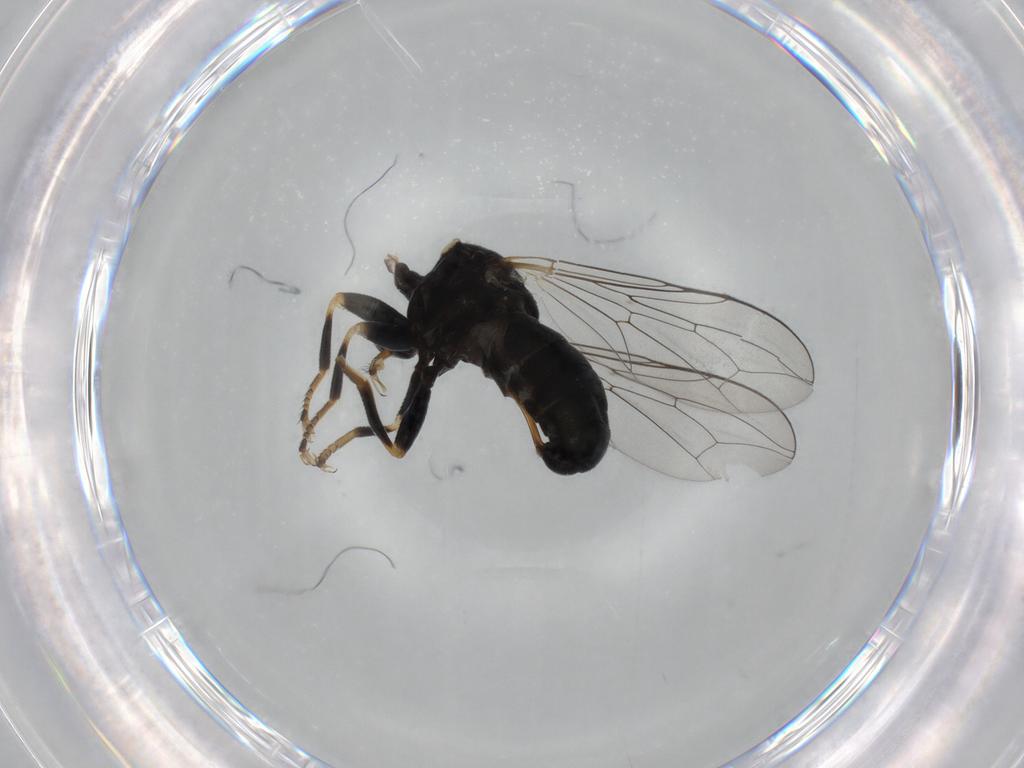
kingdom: Animalia
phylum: Arthropoda
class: Insecta
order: Diptera
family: Pipunculidae
